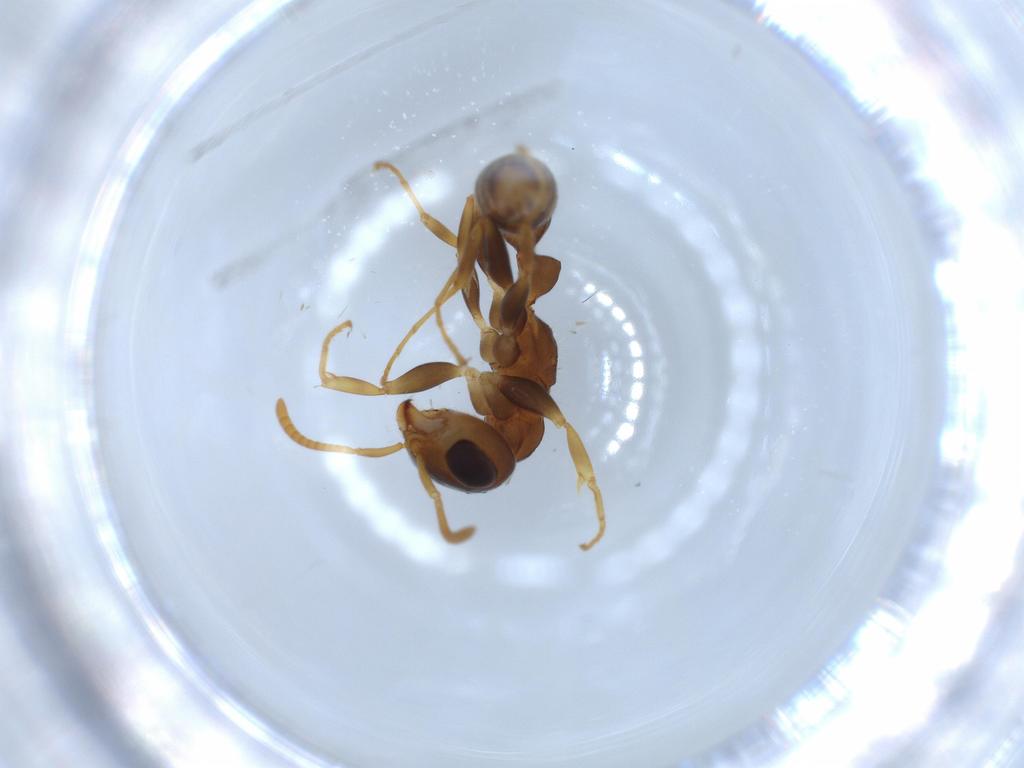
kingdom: Animalia
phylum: Arthropoda
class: Insecta
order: Hymenoptera
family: Formicidae
